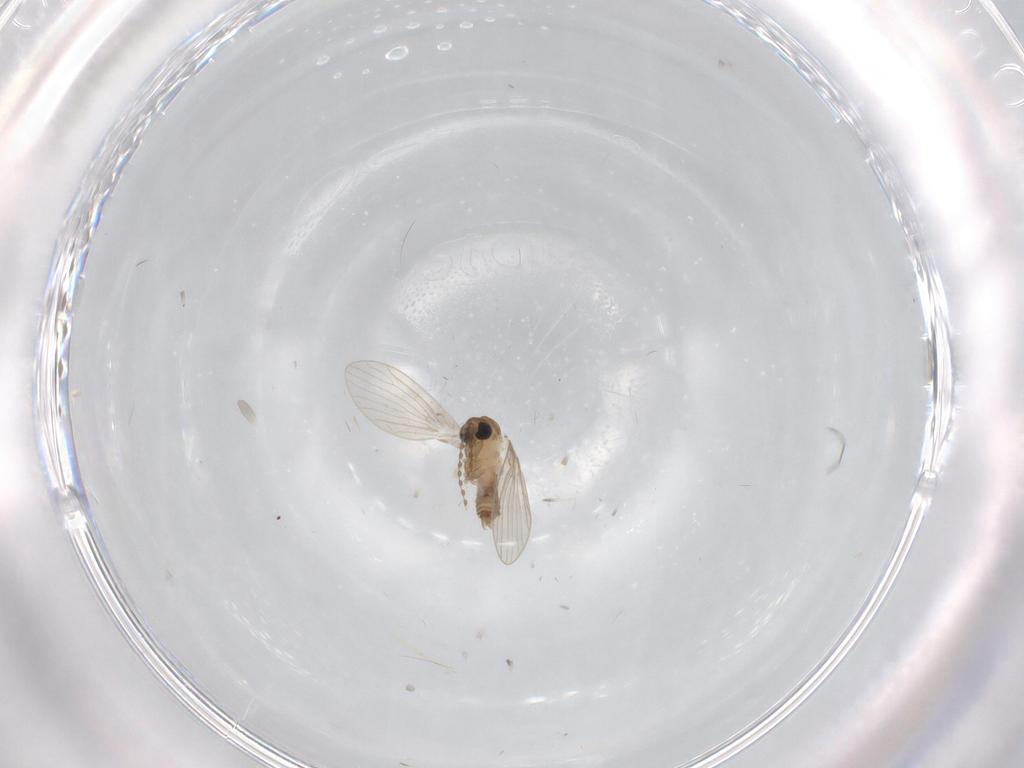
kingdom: Animalia
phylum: Arthropoda
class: Insecta
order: Diptera
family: Psychodidae
